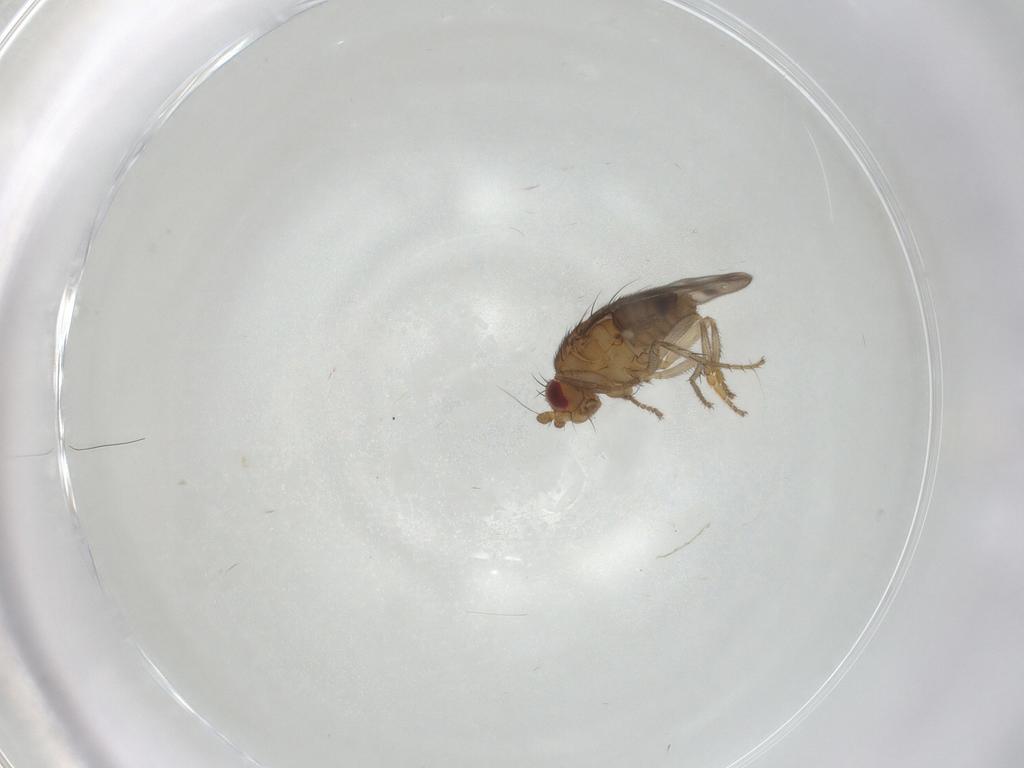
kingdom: Animalia
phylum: Arthropoda
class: Insecta
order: Diptera
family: Sphaeroceridae
